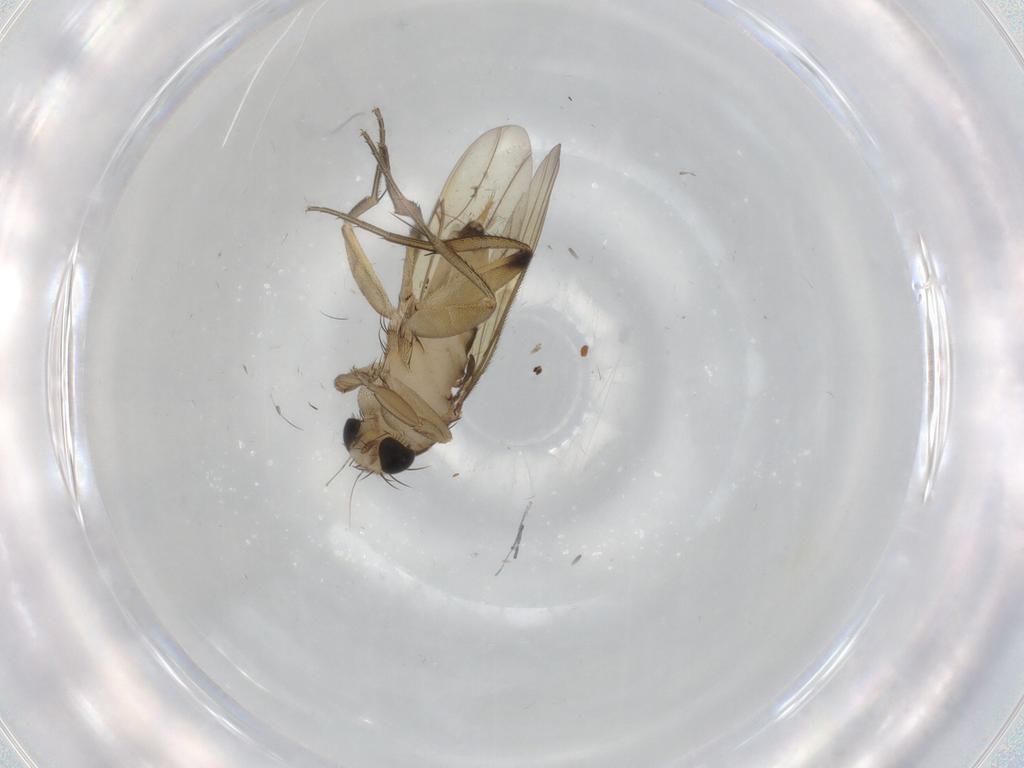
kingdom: Animalia
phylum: Arthropoda
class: Insecta
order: Diptera
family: Phoridae
